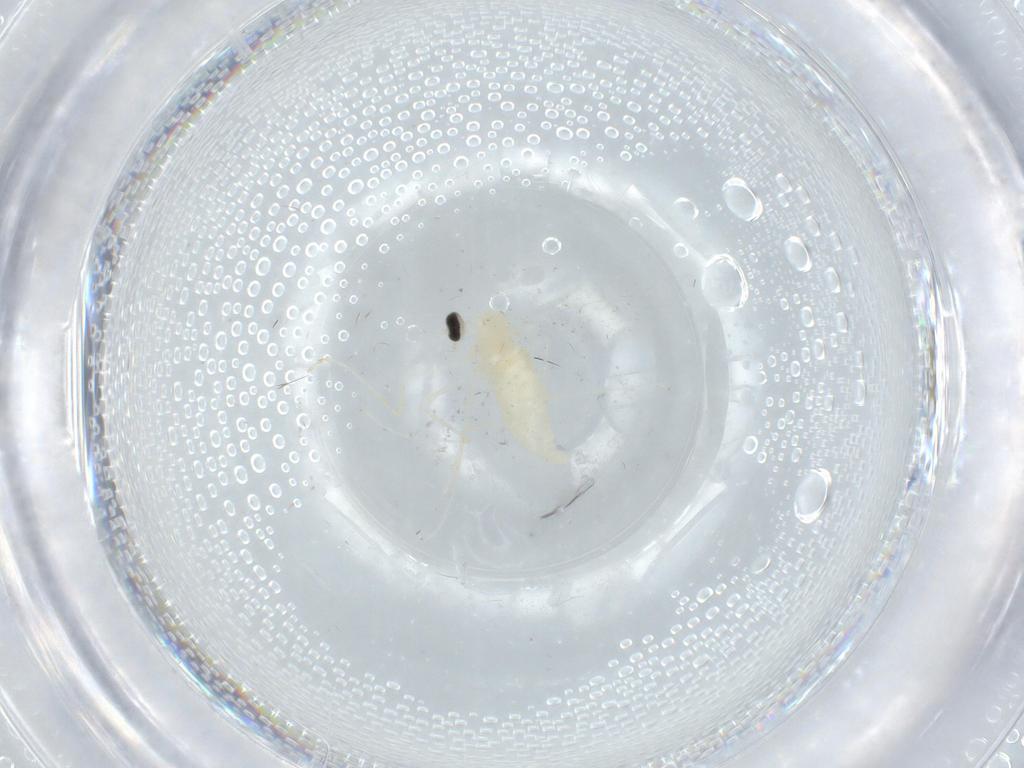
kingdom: Animalia
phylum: Arthropoda
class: Insecta
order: Diptera
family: Cecidomyiidae
